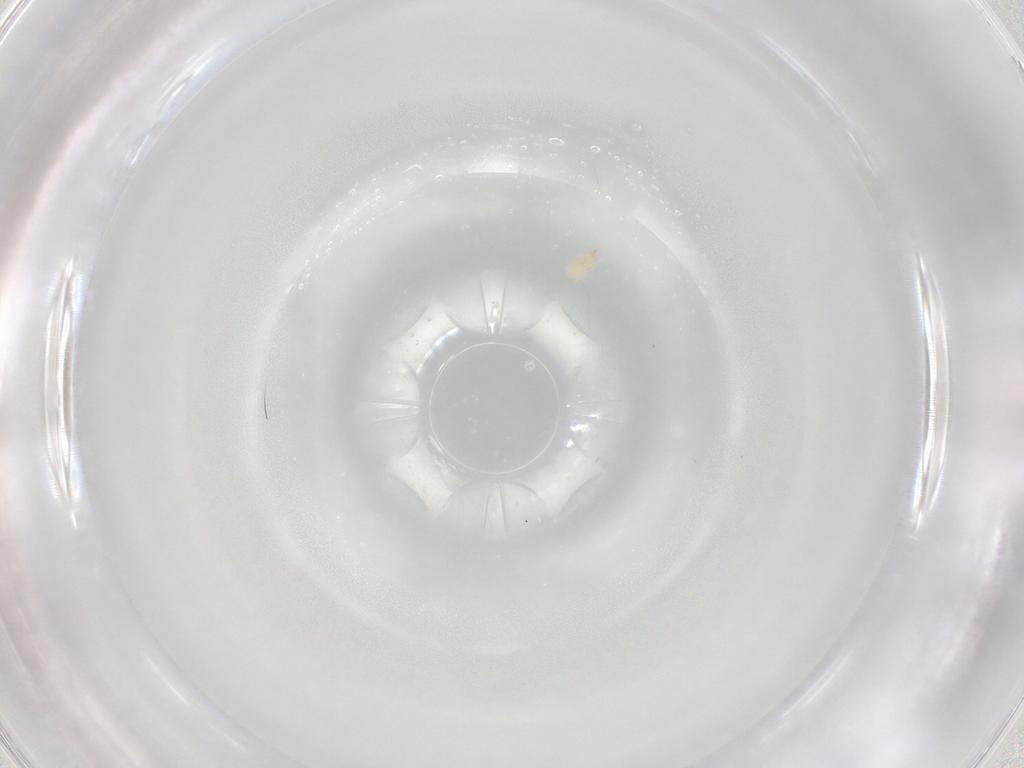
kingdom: Animalia
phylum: Arthropoda
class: Arachnida
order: Trombidiformes
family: Cunaxidae
